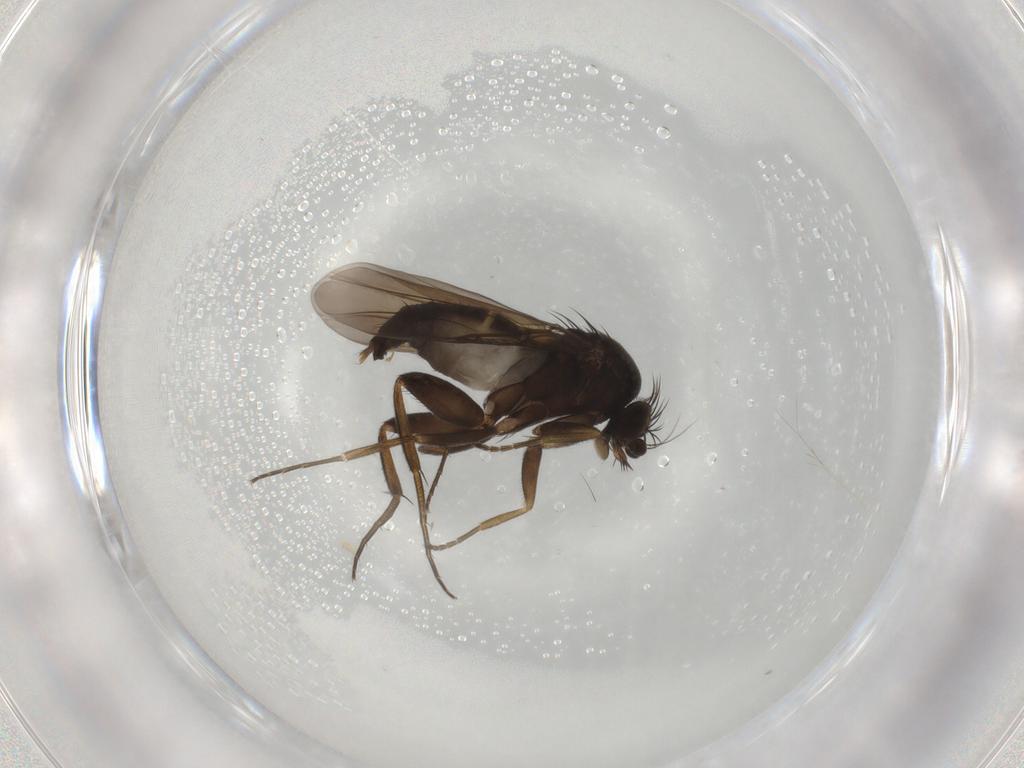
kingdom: Animalia
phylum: Arthropoda
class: Insecta
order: Diptera
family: Phoridae
